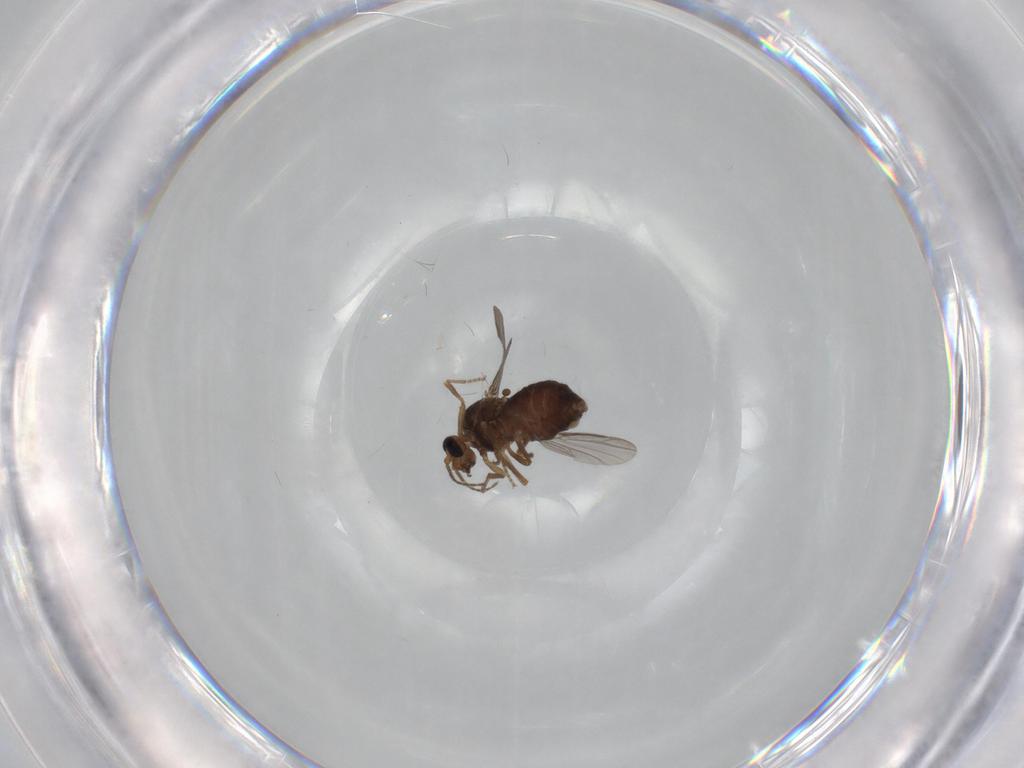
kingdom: Animalia
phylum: Arthropoda
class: Insecta
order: Diptera
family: Ceratopogonidae
